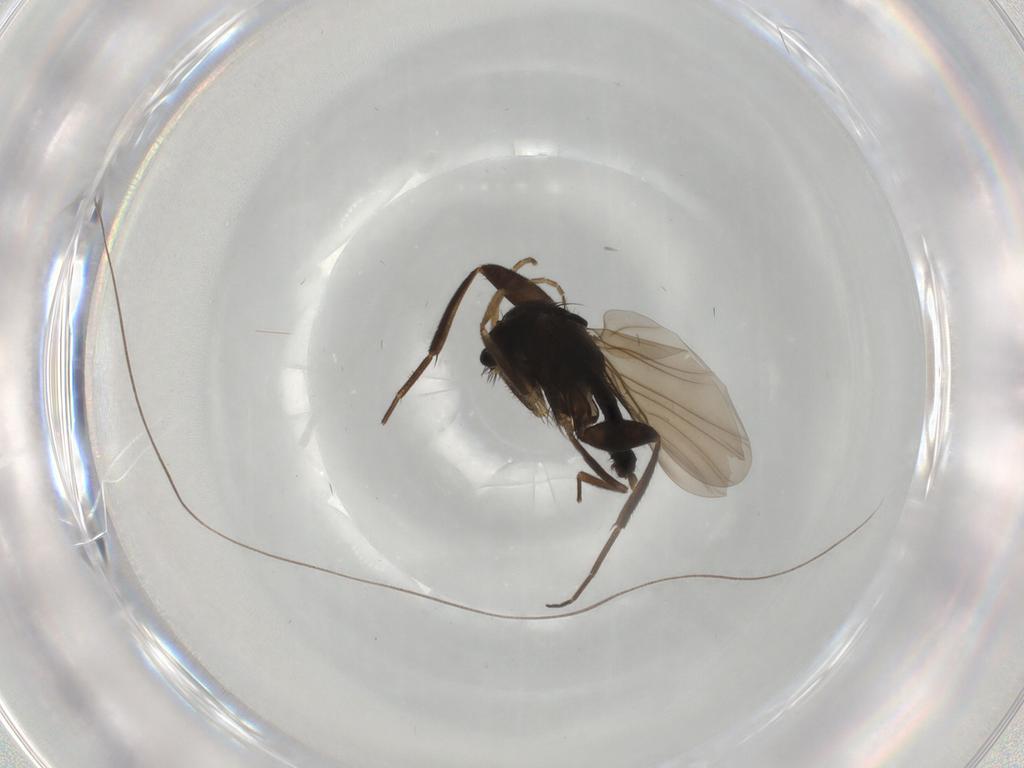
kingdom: Animalia
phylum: Arthropoda
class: Insecta
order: Diptera
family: Phoridae
